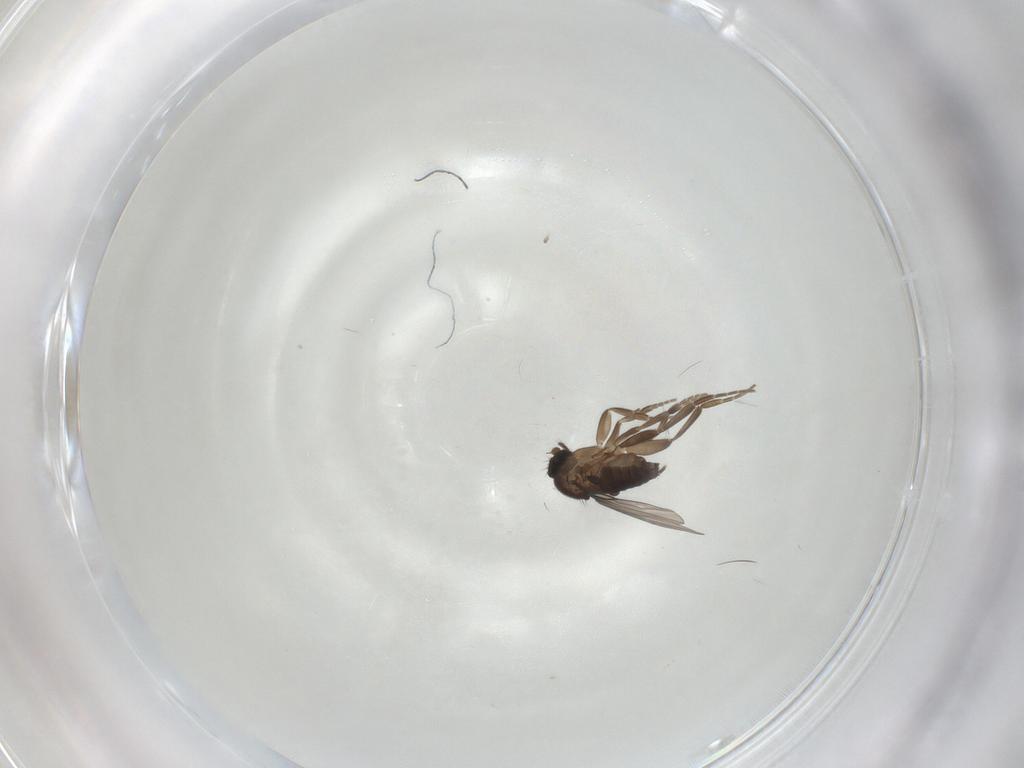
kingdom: Animalia
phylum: Arthropoda
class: Insecta
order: Diptera
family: Phoridae
